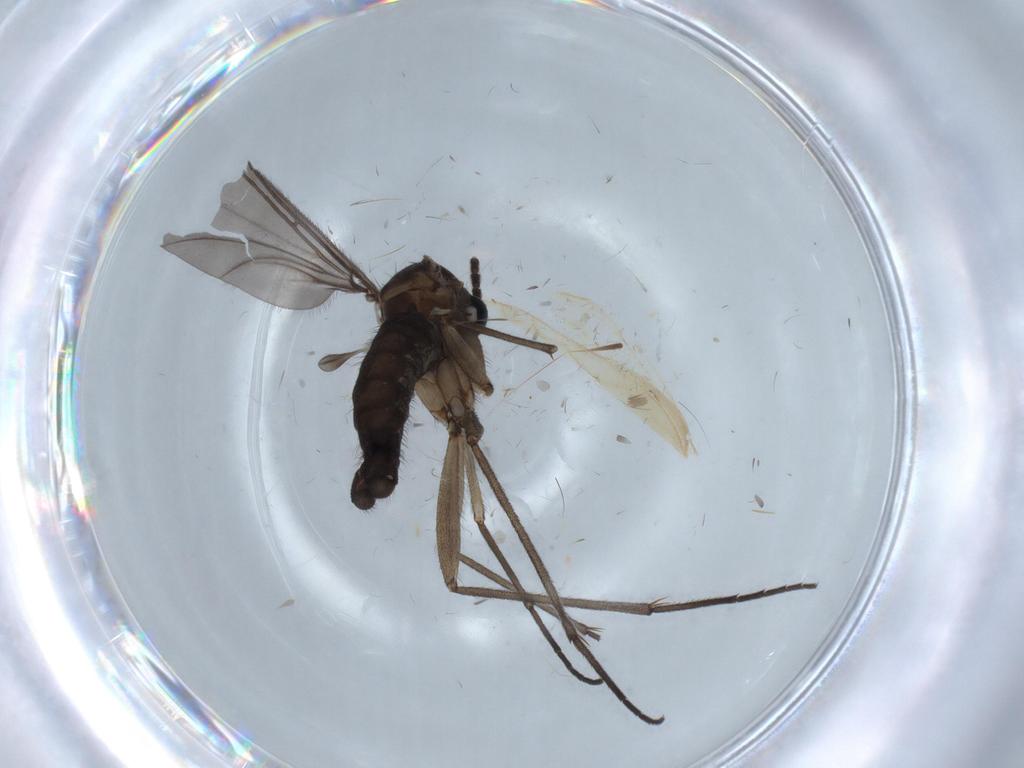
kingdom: Animalia
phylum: Arthropoda
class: Insecta
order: Diptera
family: Sciaridae
